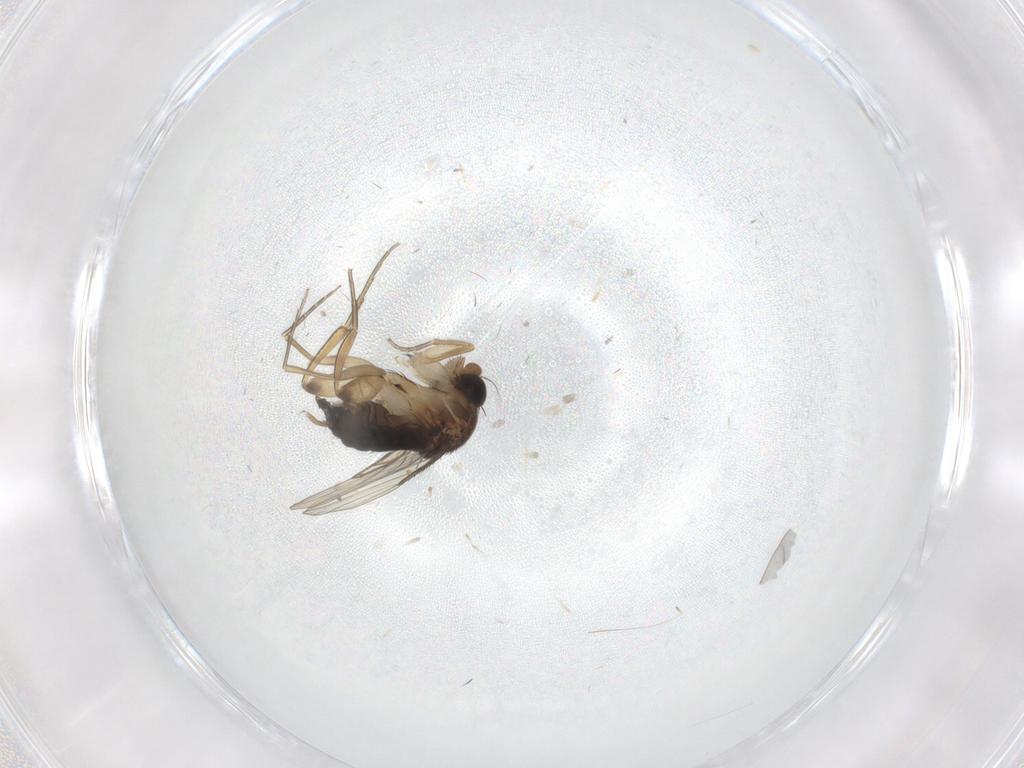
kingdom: Animalia
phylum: Arthropoda
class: Insecta
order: Diptera
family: Phoridae
